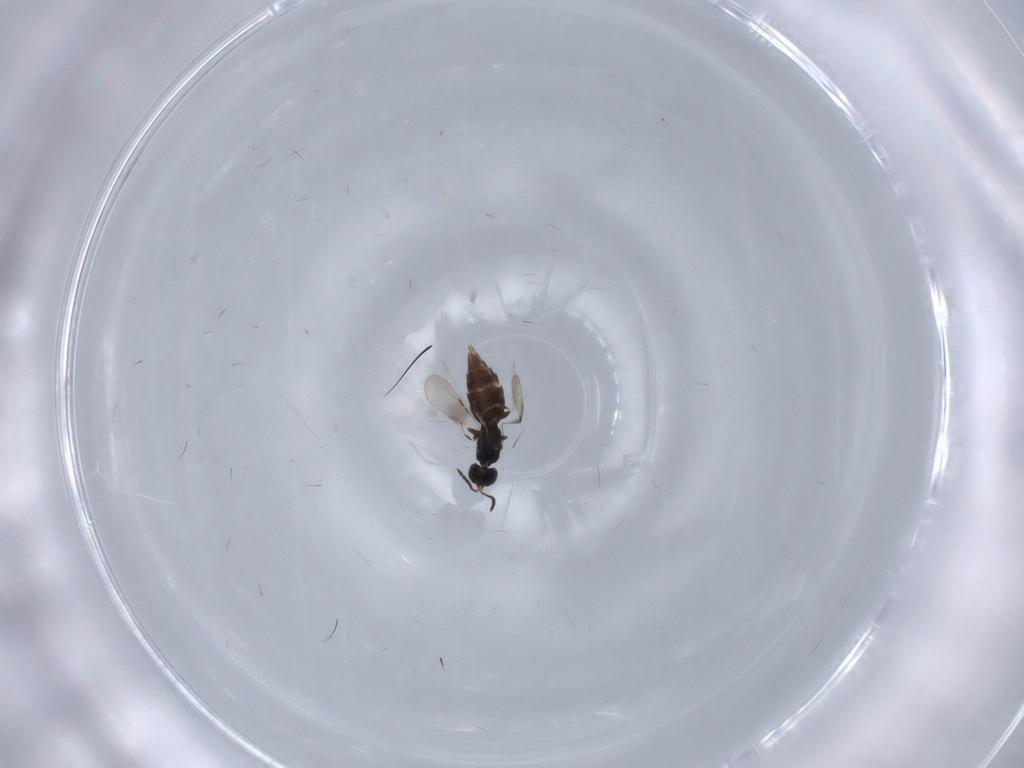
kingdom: Animalia
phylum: Arthropoda
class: Insecta
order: Hymenoptera
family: Ceraphronidae
